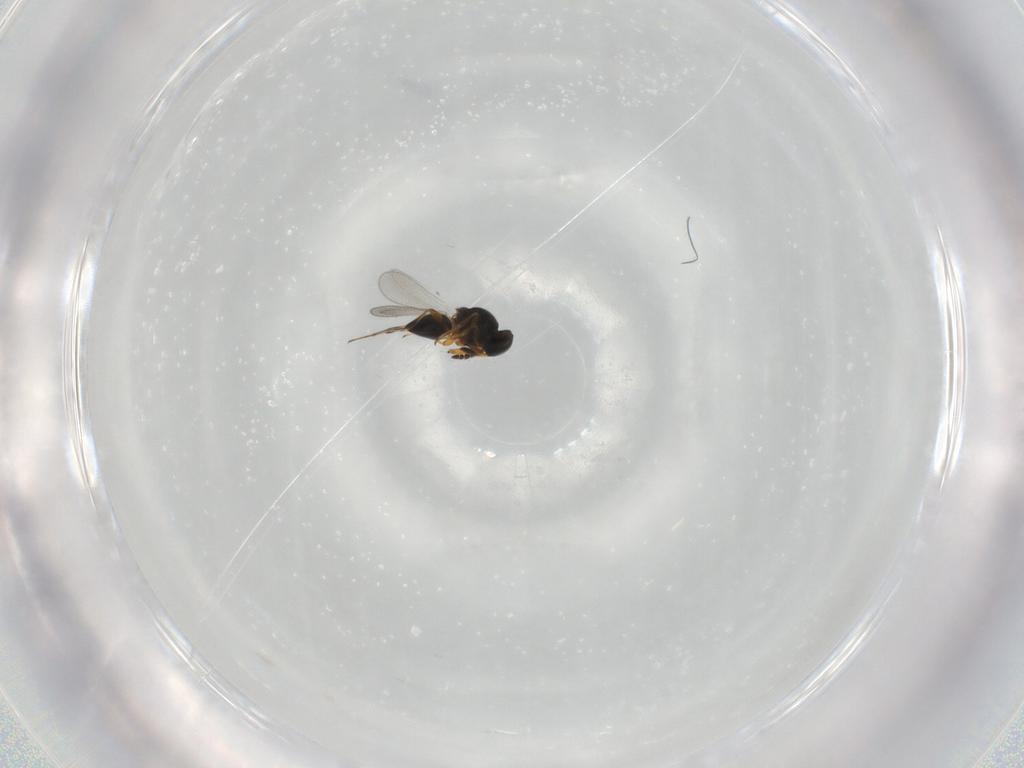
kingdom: Animalia
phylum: Arthropoda
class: Insecta
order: Hymenoptera
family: Platygastridae
